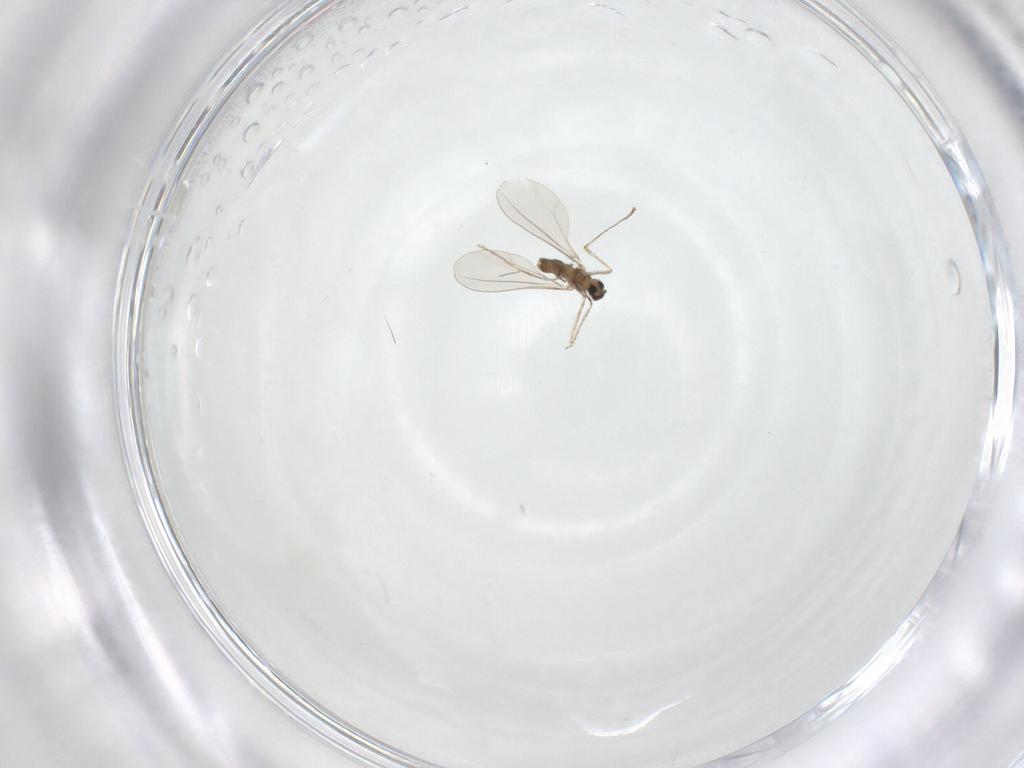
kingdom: Animalia
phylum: Arthropoda
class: Insecta
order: Diptera
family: Cecidomyiidae
